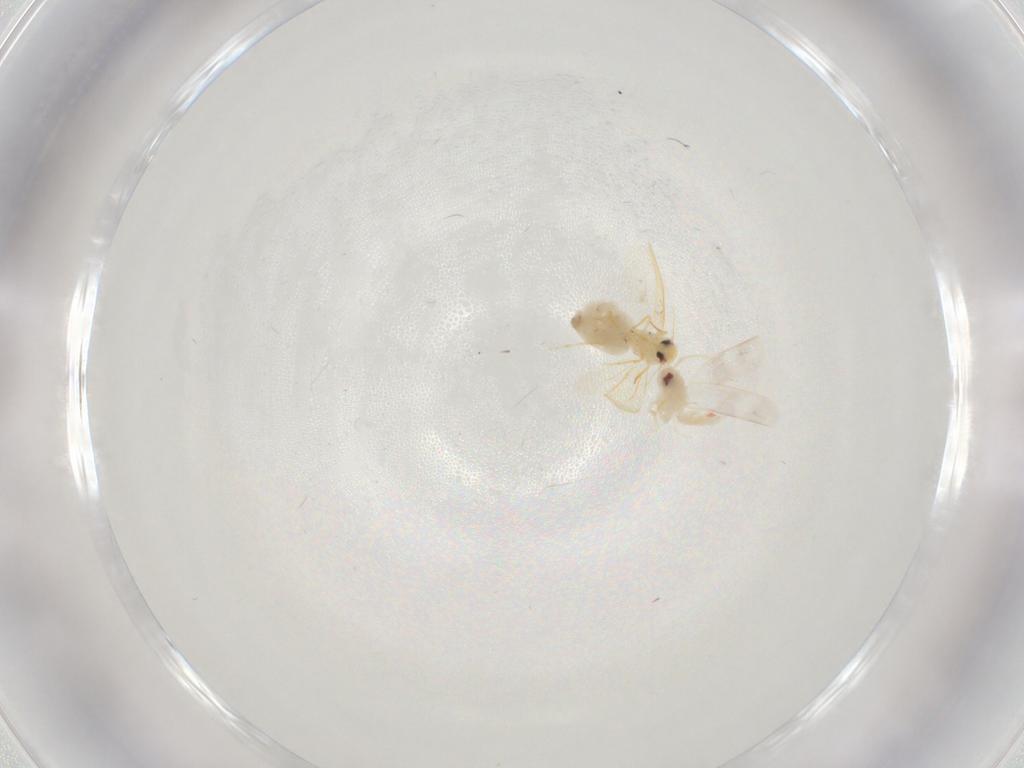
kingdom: Animalia
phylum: Arthropoda
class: Insecta
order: Hemiptera
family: Aleyrodidae
